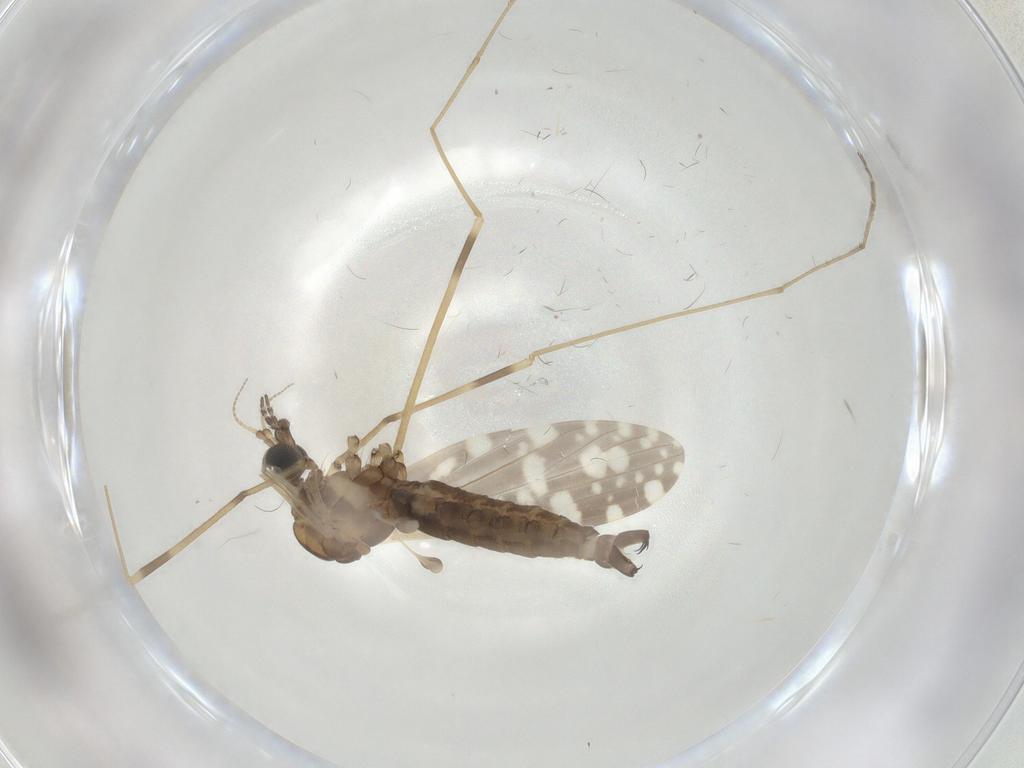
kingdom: Animalia
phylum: Arthropoda
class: Insecta
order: Diptera
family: Limoniidae
